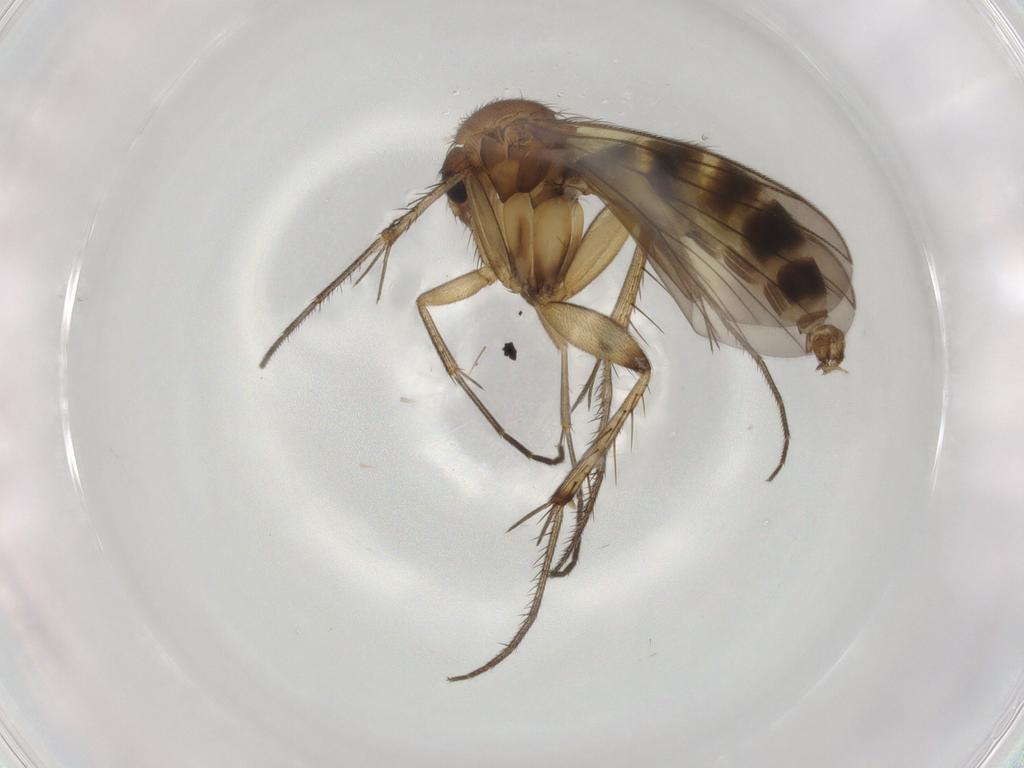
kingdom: Animalia
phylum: Arthropoda
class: Insecta
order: Diptera
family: Mycetophilidae
